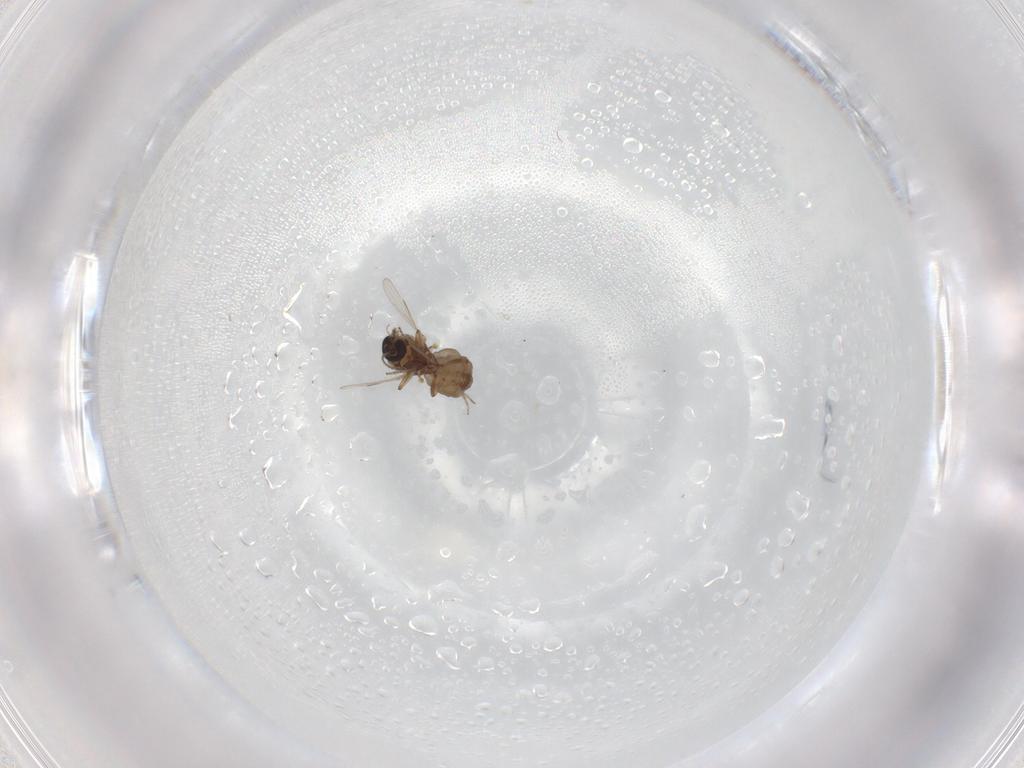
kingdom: Animalia
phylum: Arthropoda
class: Insecta
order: Diptera
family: Ceratopogonidae
